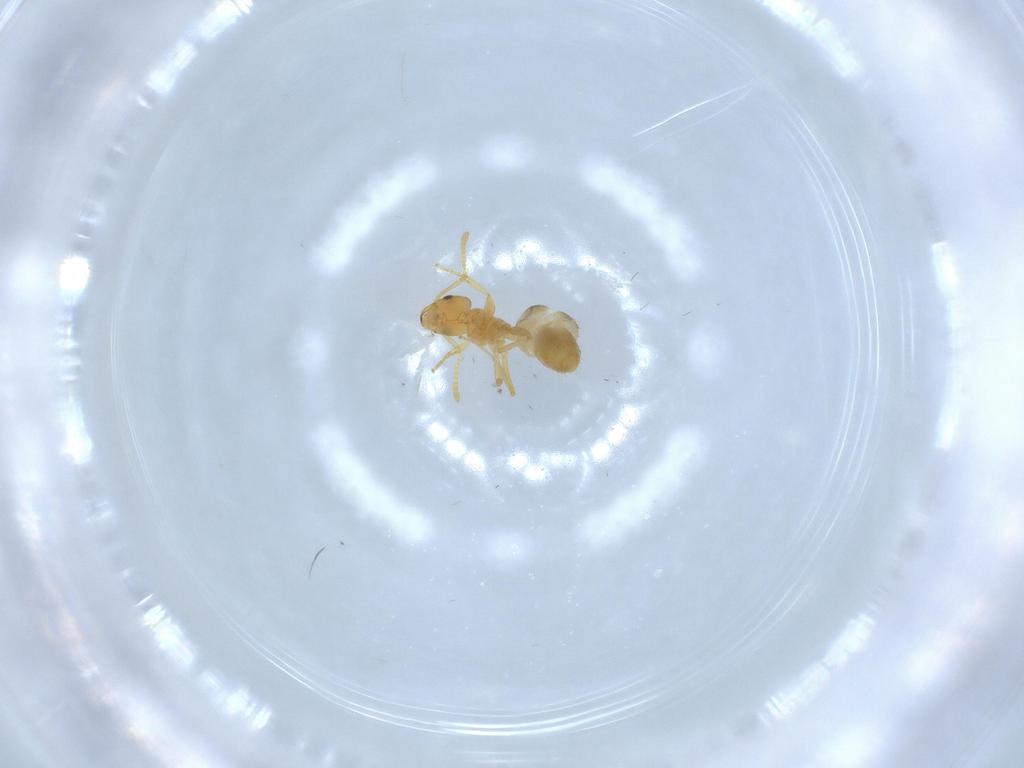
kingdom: Animalia
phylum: Arthropoda
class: Insecta
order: Hymenoptera
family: Formicidae
